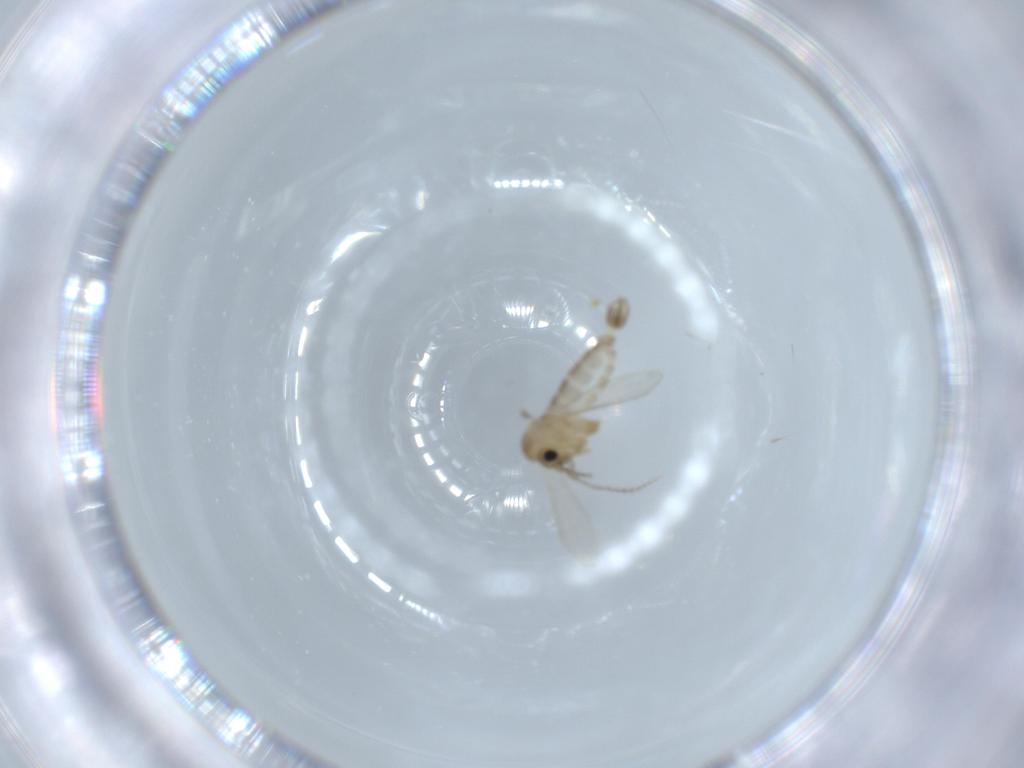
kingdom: Animalia
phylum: Arthropoda
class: Insecta
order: Diptera
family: Psychodidae
